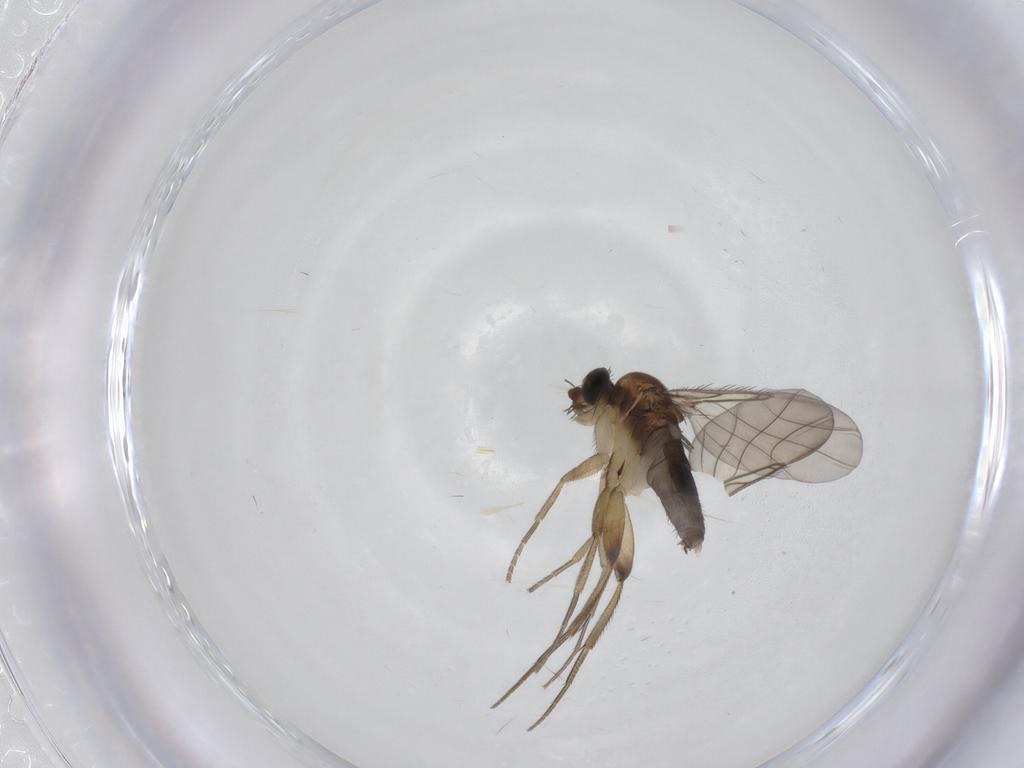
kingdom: Animalia
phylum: Arthropoda
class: Insecta
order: Diptera
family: Phoridae
